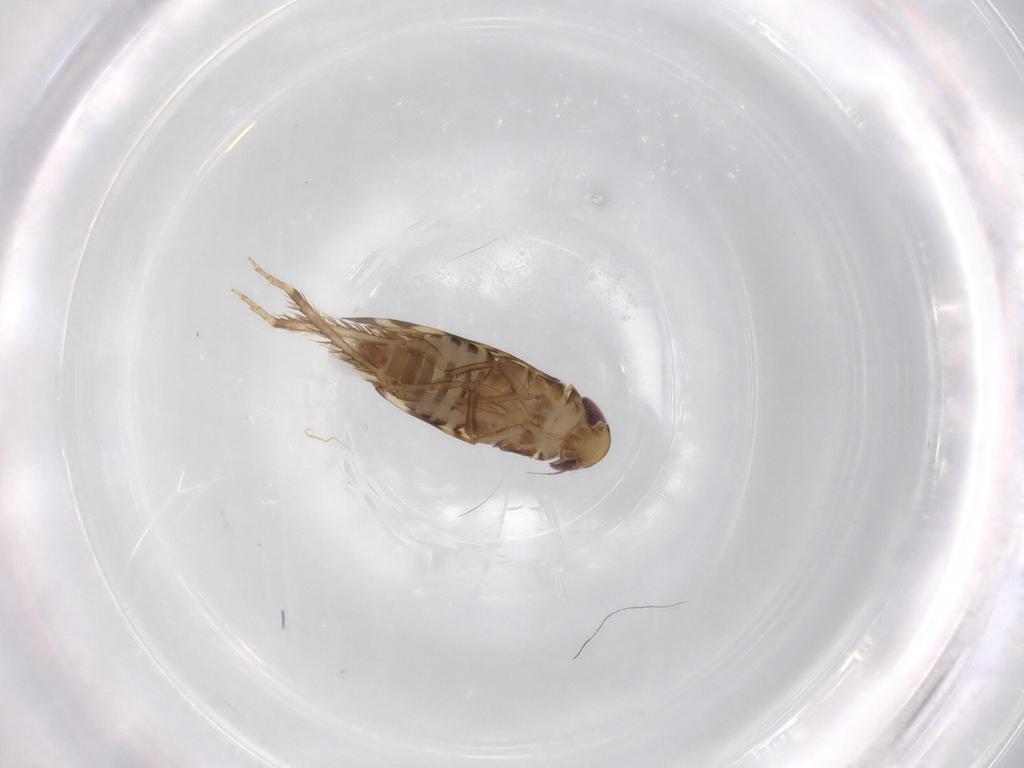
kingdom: Animalia
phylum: Arthropoda
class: Insecta
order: Hemiptera
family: Cicadellidae
